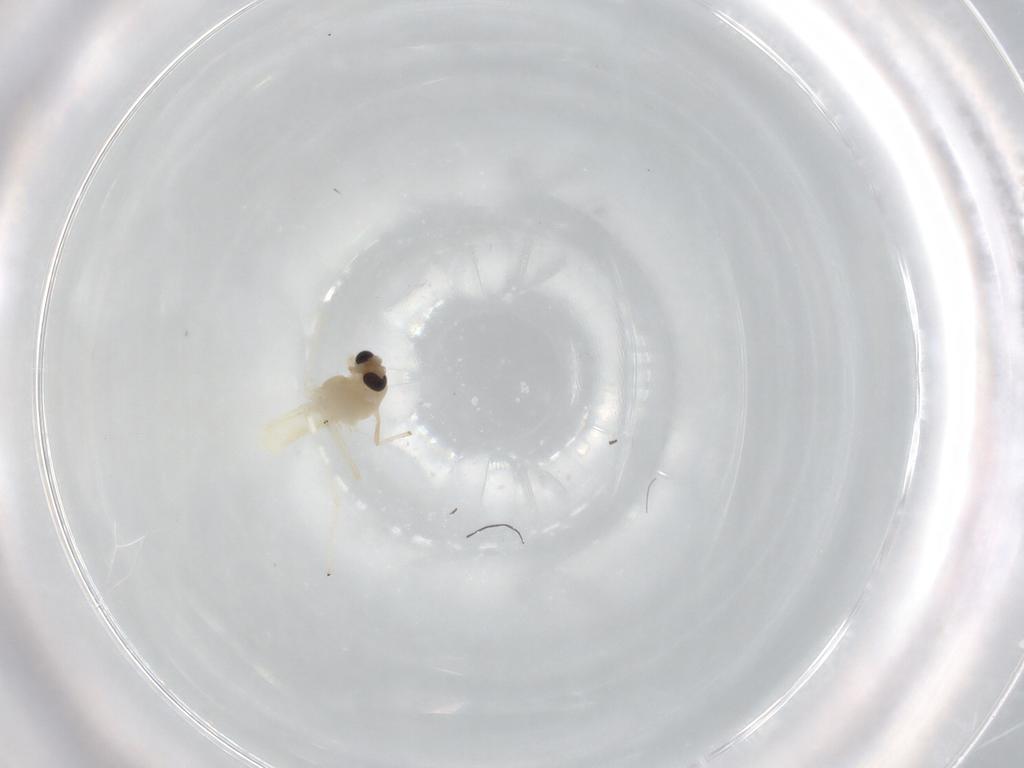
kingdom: Animalia
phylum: Arthropoda
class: Insecta
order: Diptera
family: Chironomidae
